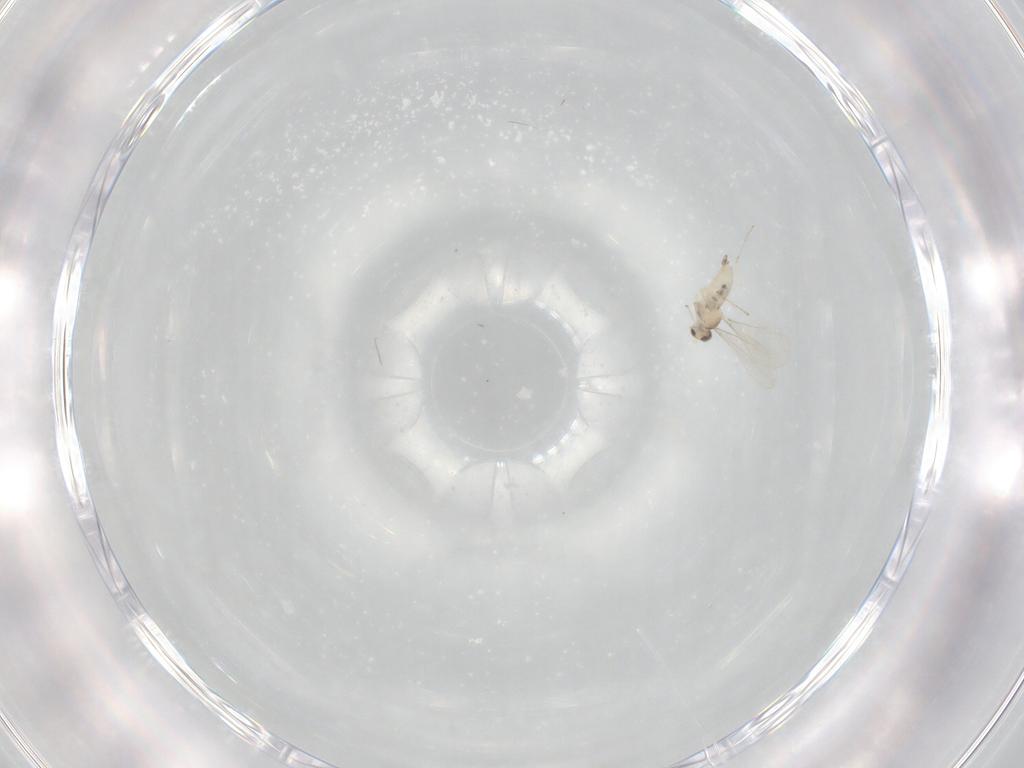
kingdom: Animalia
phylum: Arthropoda
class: Insecta
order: Diptera
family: Cecidomyiidae
